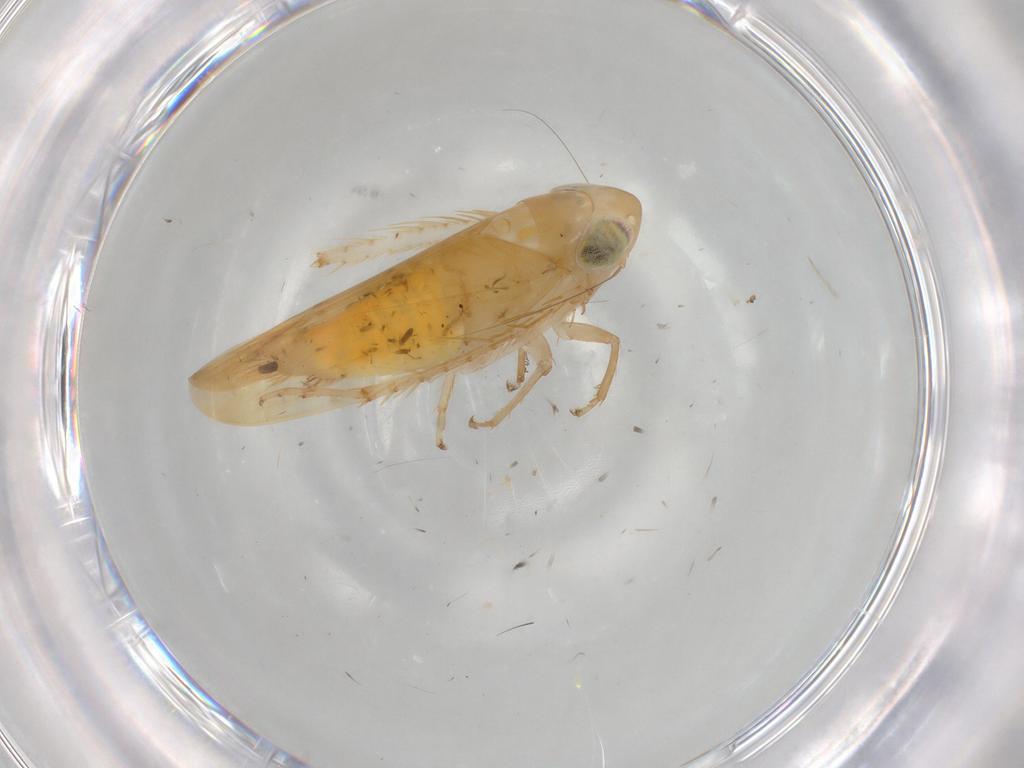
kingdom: Animalia
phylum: Arthropoda
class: Insecta
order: Hemiptera
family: Cicadellidae
